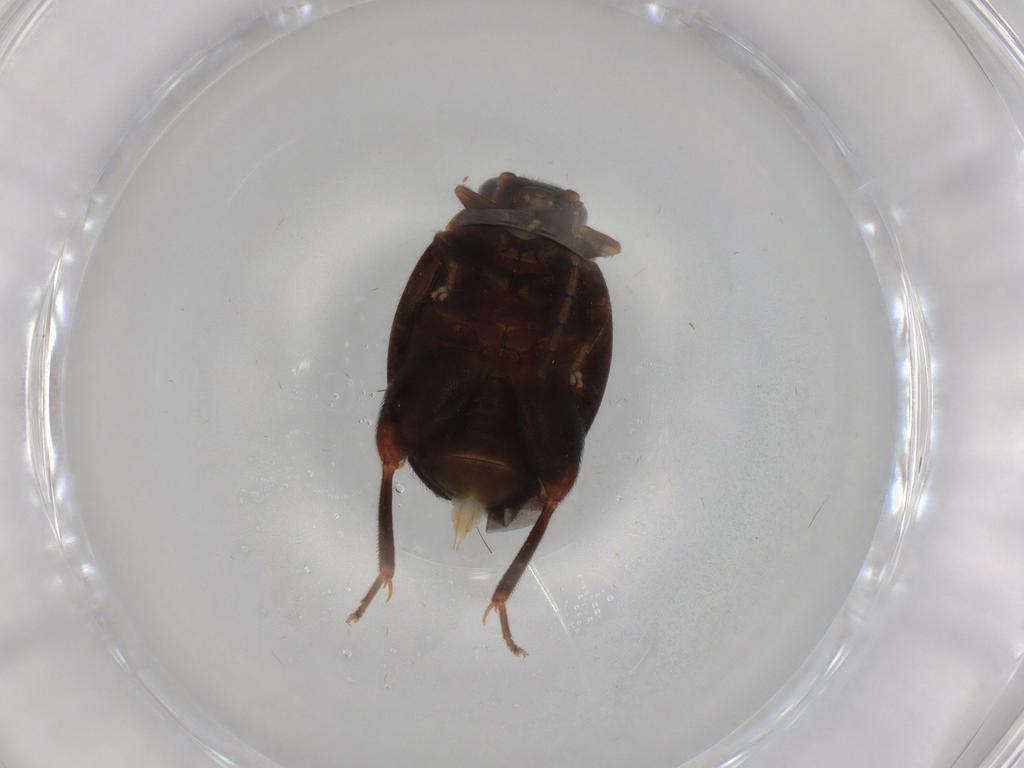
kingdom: Animalia
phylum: Arthropoda
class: Insecta
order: Coleoptera
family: Scirtidae
